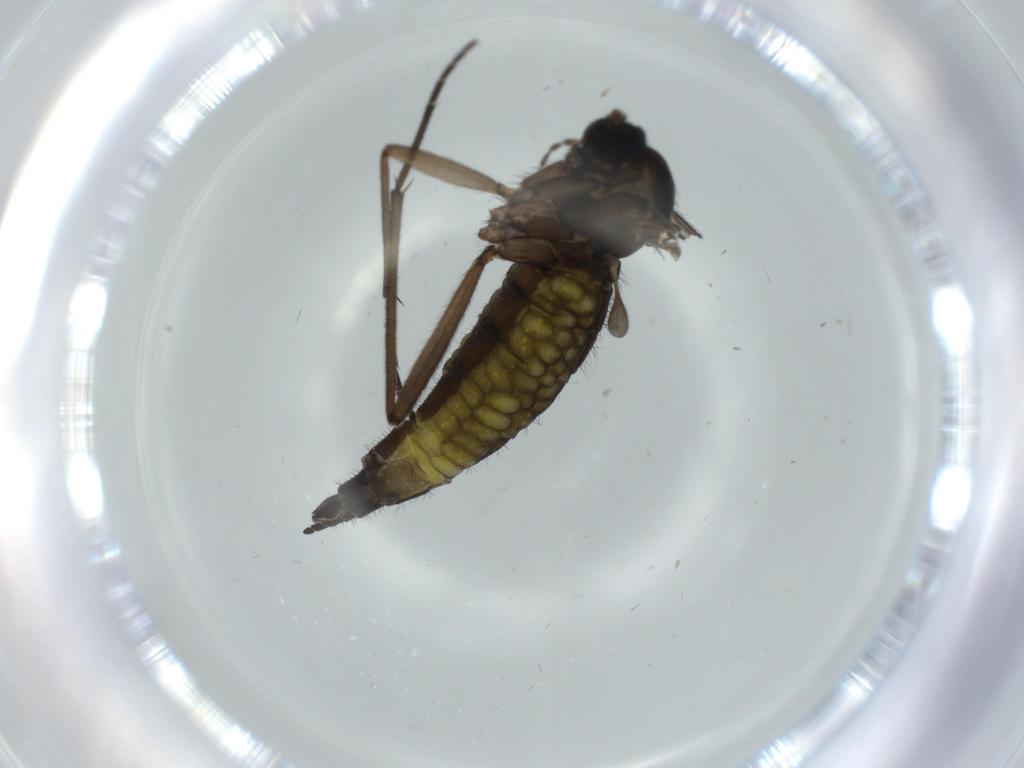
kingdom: Animalia
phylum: Arthropoda
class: Insecta
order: Diptera
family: Sciaridae
